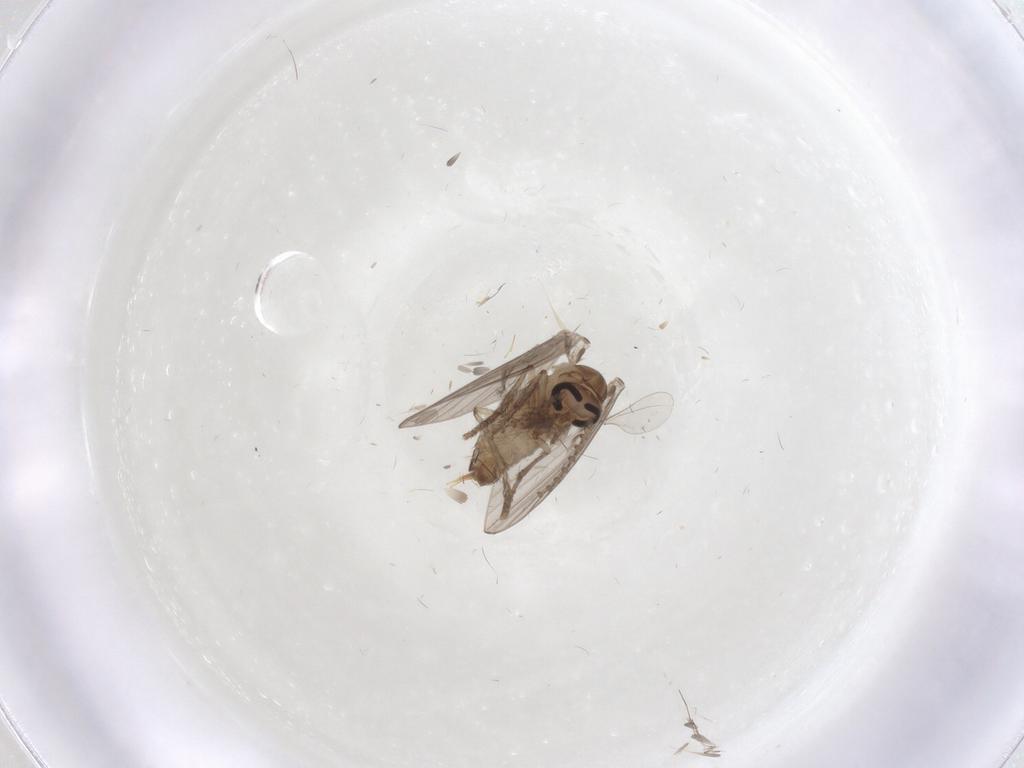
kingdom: Animalia
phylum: Arthropoda
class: Insecta
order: Diptera
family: Psychodidae
